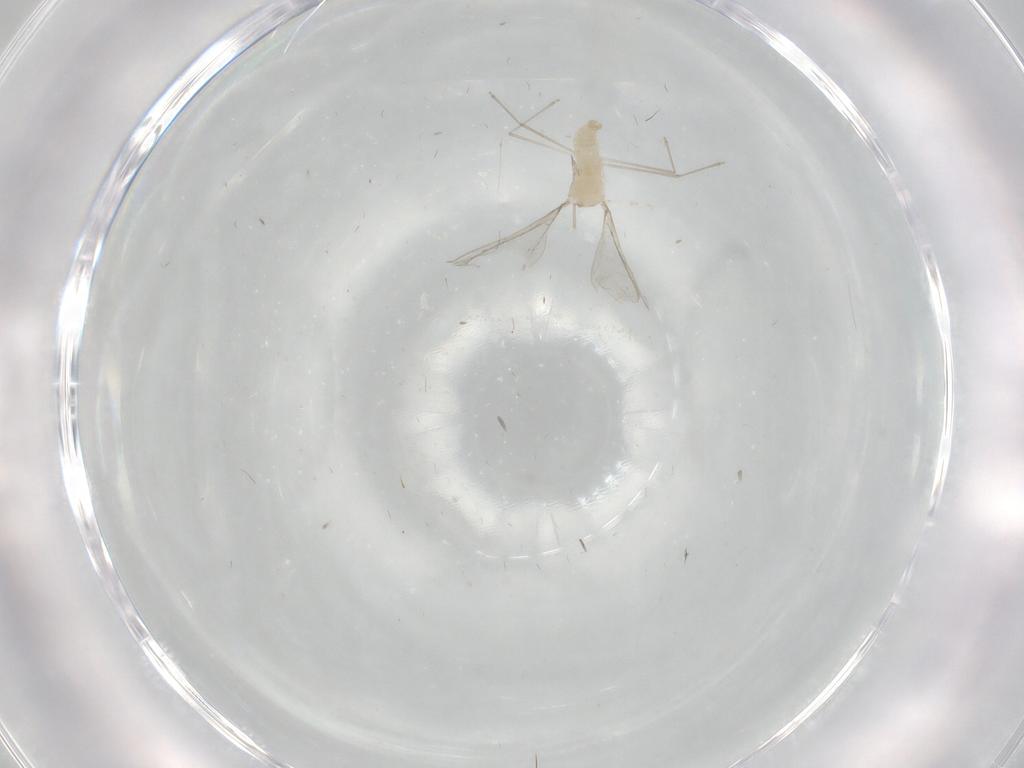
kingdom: Animalia
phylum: Arthropoda
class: Insecta
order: Diptera
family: Cecidomyiidae
